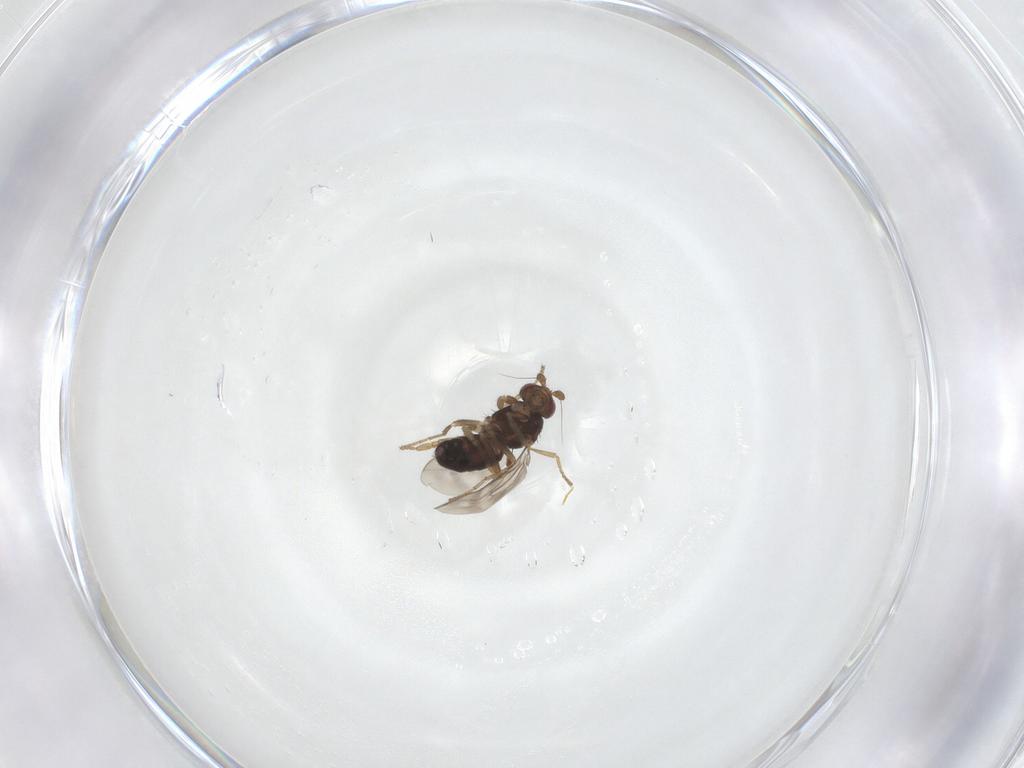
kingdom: Animalia
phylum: Arthropoda
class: Insecta
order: Diptera
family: Sphaeroceridae
